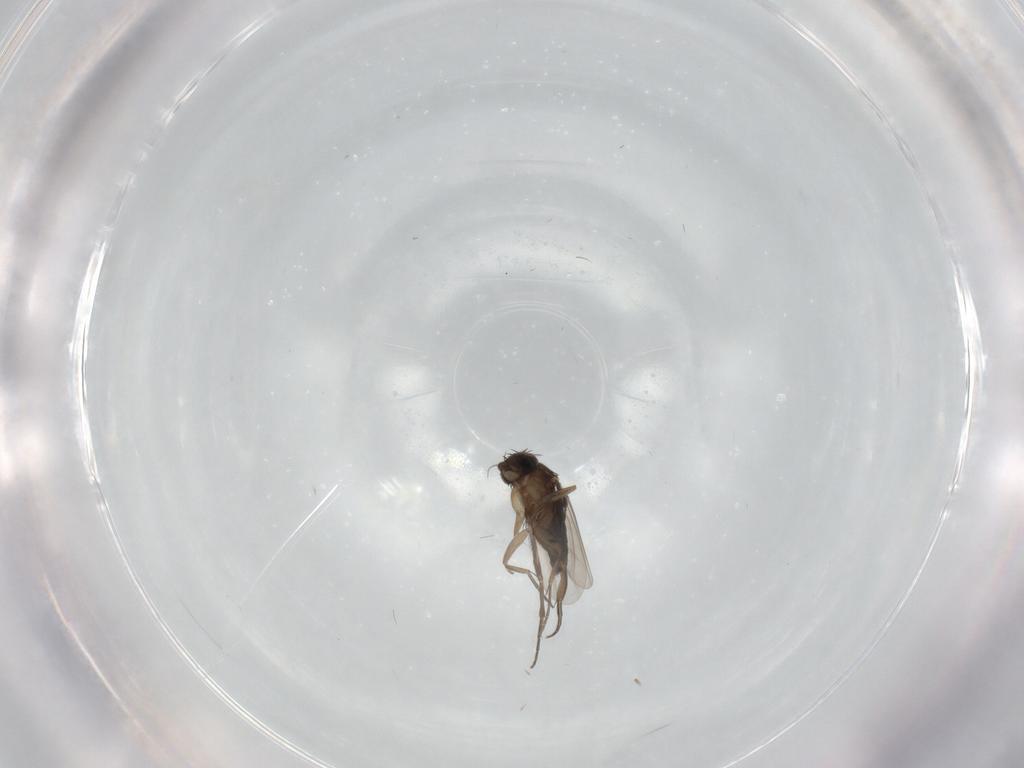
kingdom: Animalia
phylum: Arthropoda
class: Insecta
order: Diptera
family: Phoridae
